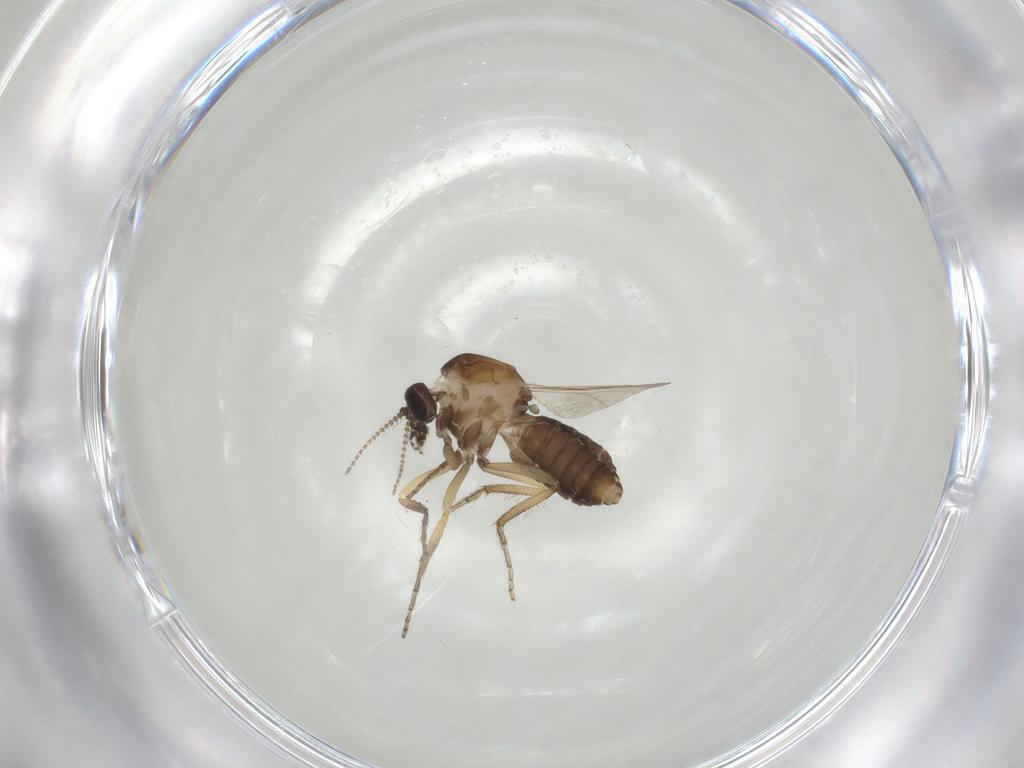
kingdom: Animalia
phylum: Arthropoda
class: Insecta
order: Diptera
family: Ceratopogonidae
